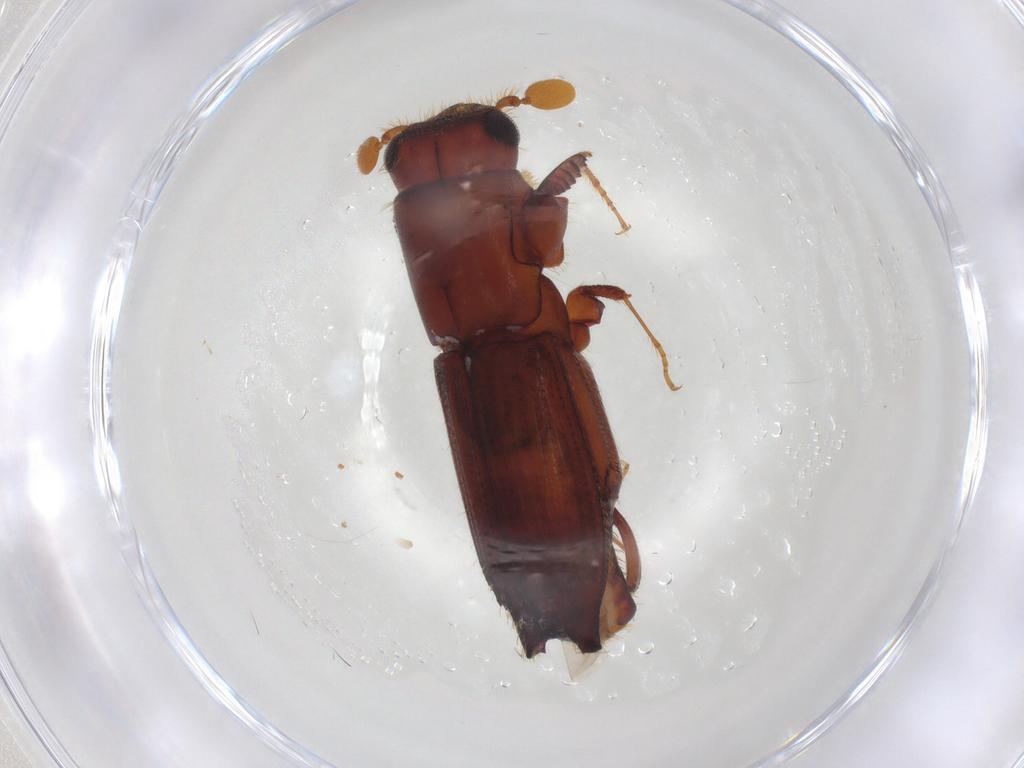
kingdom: Animalia
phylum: Arthropoda
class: Insecta
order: Coleoptera
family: Curculionidae
